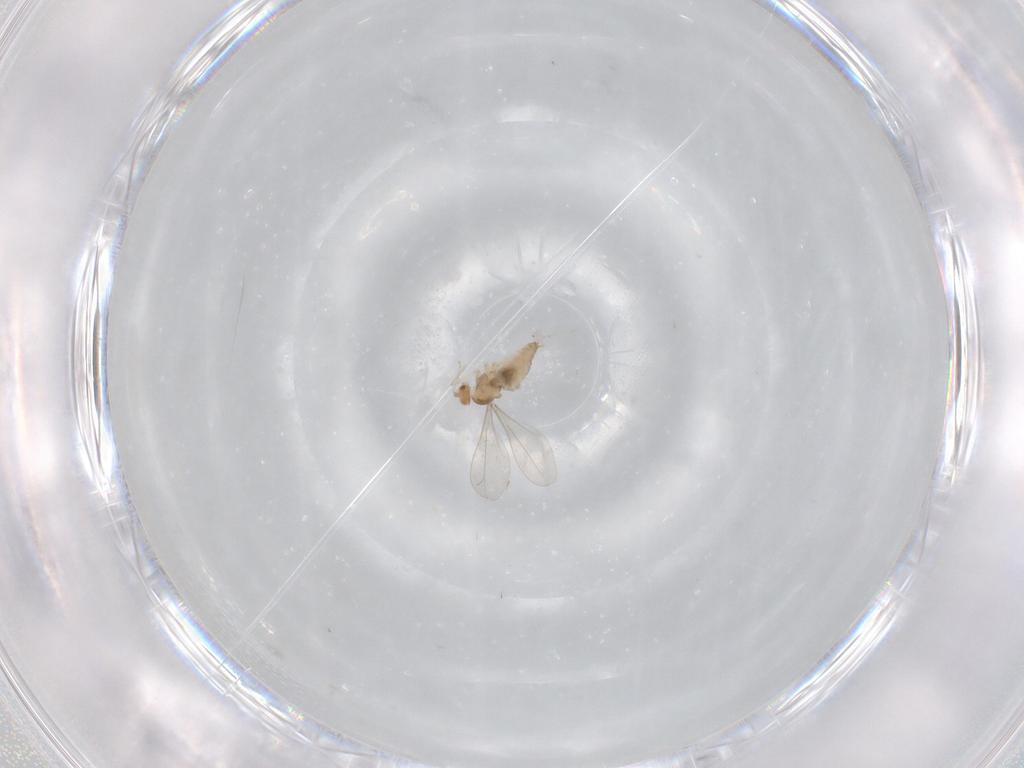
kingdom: Animalia
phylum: Arthropoda
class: Insecta
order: Diptera
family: Cecidomyiidae
